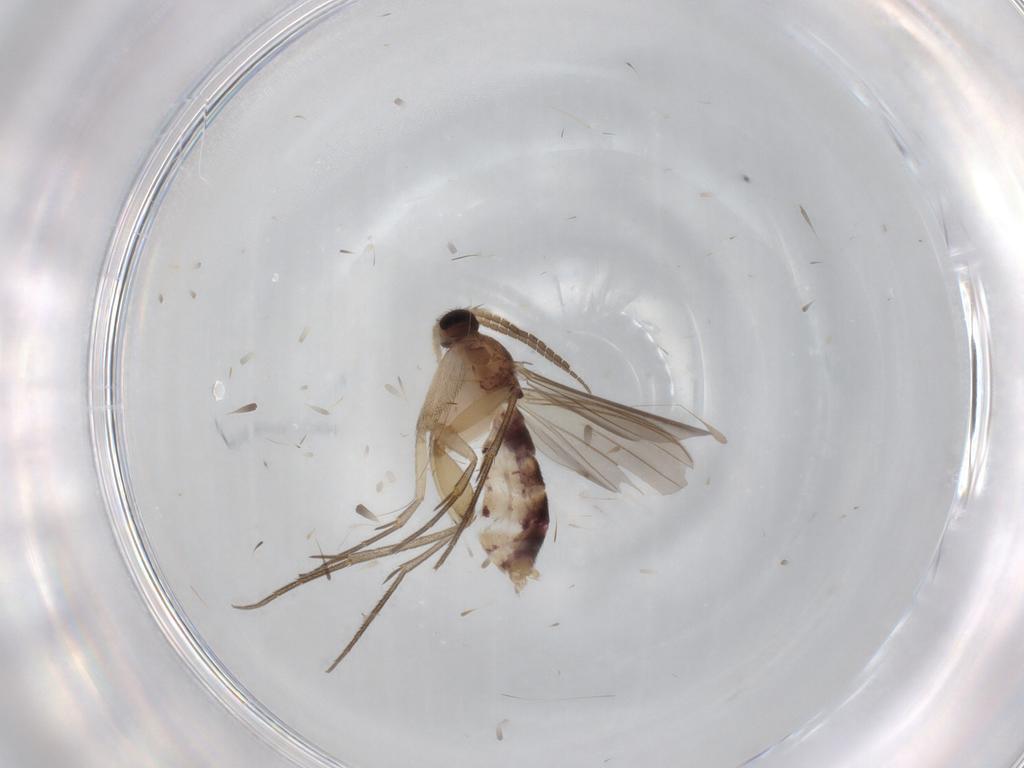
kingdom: Animalia
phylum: Arthropoda
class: Insecta
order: Diptera
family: Mycetophilidae
